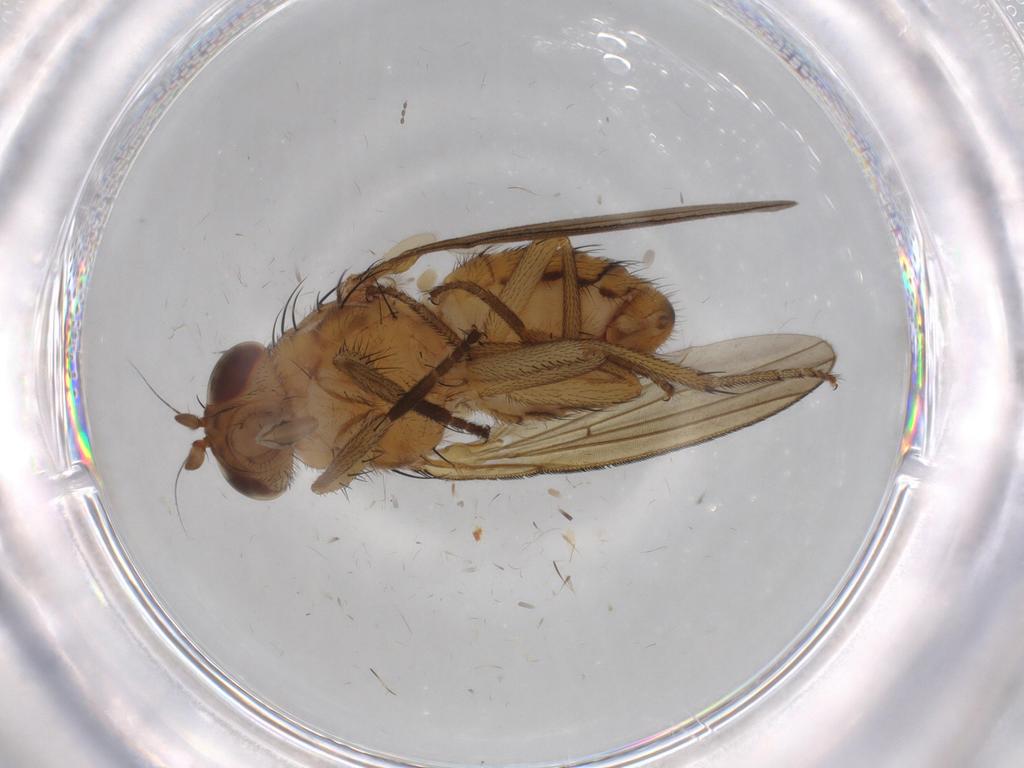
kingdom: Animalia
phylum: Arthropoda
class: Insecta
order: Diptera
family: Lauxaniidae
